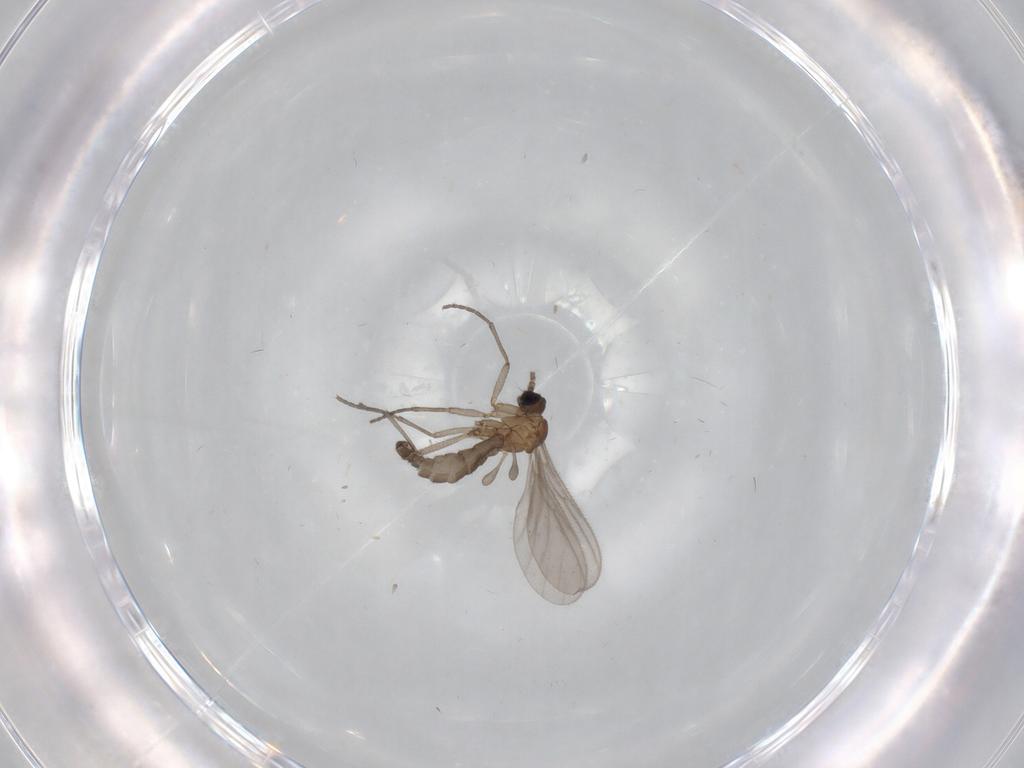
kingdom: Animalia
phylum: Arthropoda
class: Insecta
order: Diptera
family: Sciaridae
